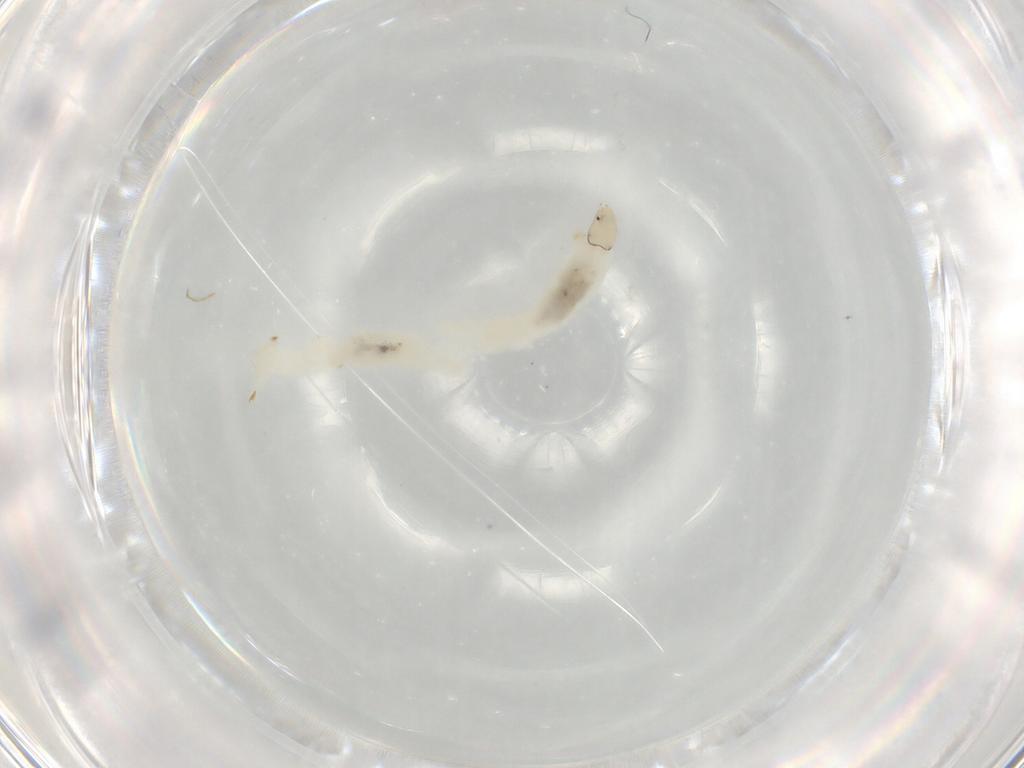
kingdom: Animalia
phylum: Arthropoda
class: Insecta
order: Diptera
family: Chironomidae
